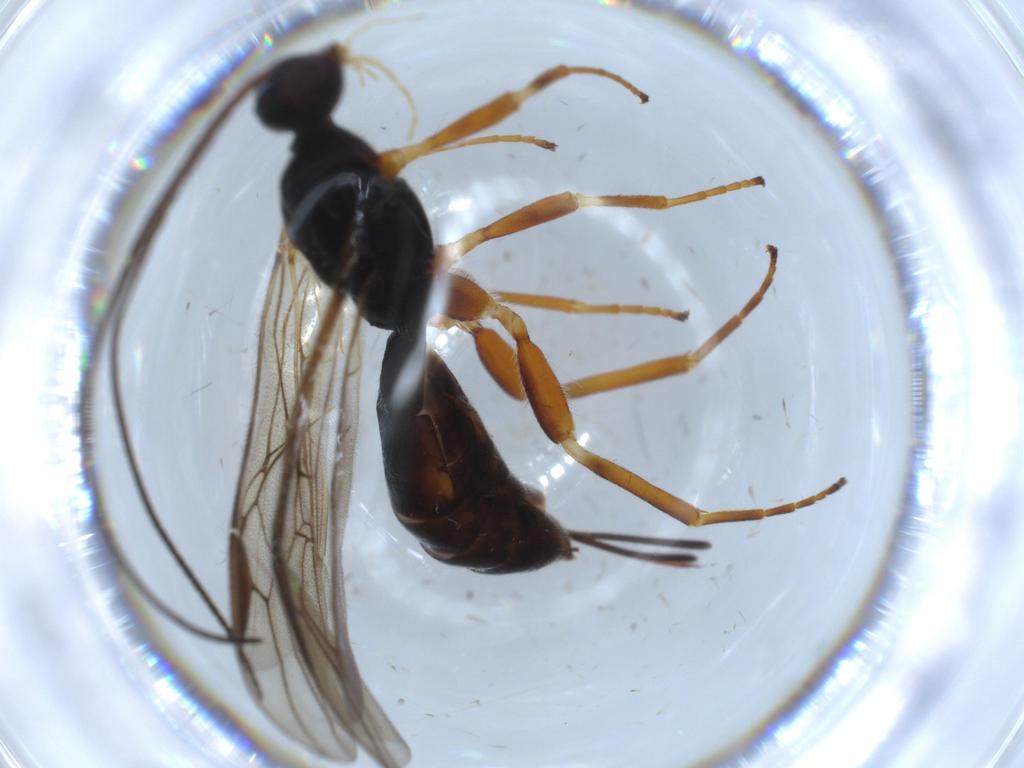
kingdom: Animalia
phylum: Arthropoda
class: Insecta
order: Hymenoptera
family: Braconidae
